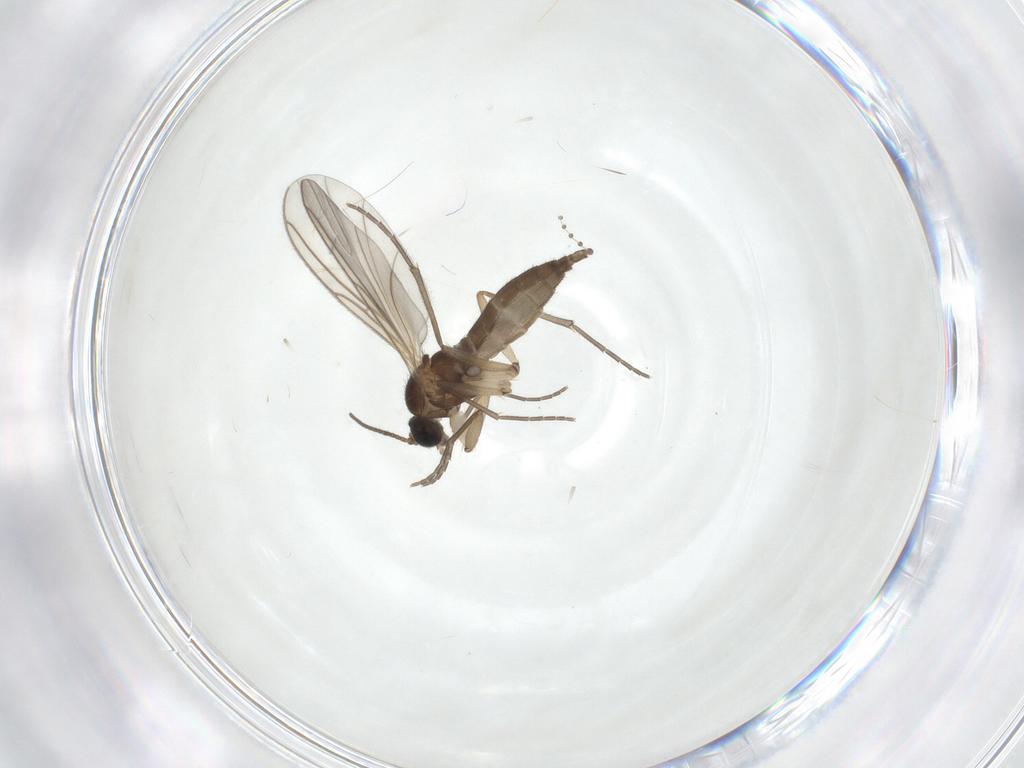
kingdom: Animalia
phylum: Arthropoda
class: Insecta
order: Diptera
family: Sciaridae
